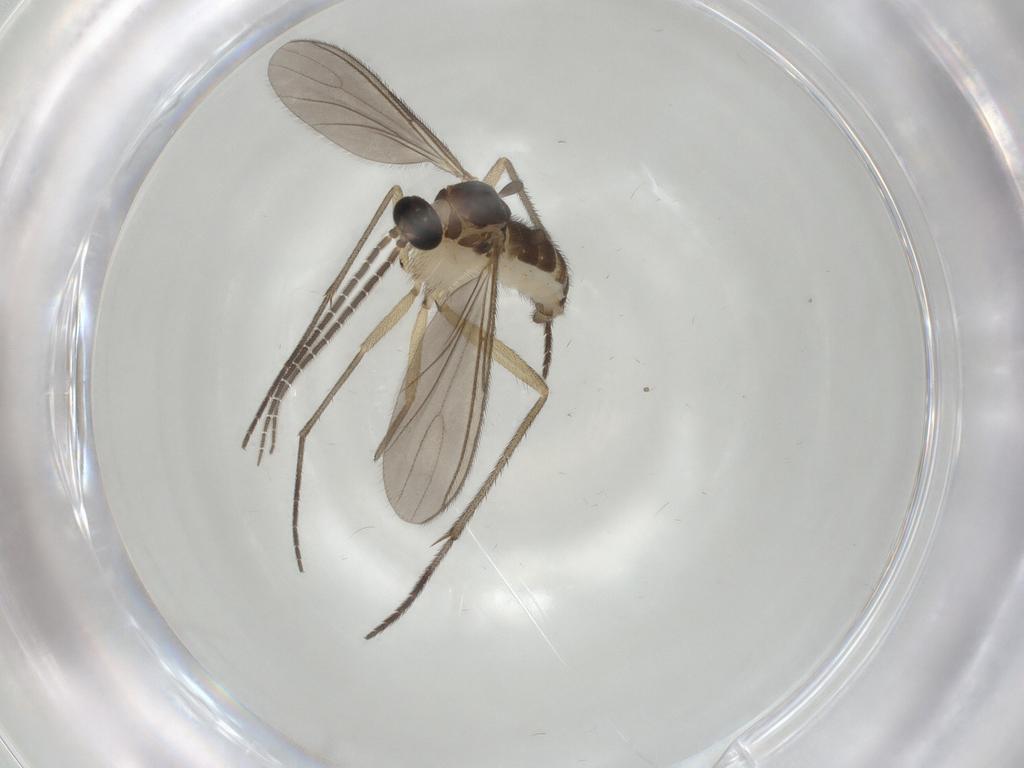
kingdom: Animalia
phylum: Arthropoda
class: Insecta
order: Diptera
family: Sciaridae
